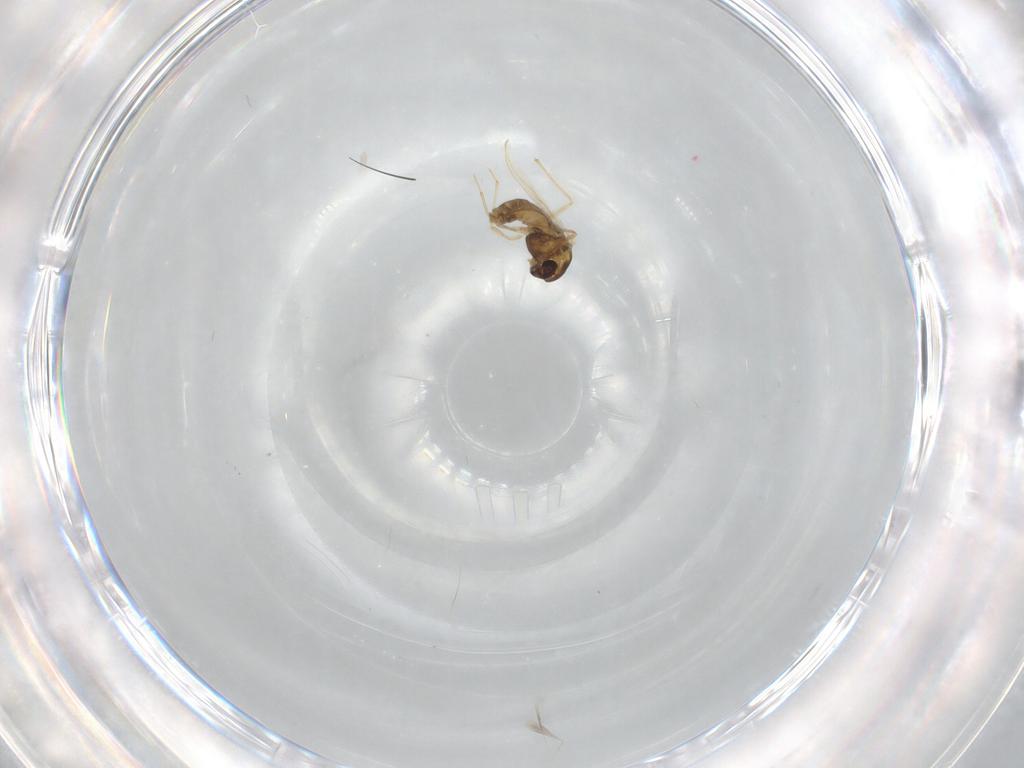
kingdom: Animalia
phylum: Arthropoda
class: Insecta
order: Diptera
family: Chironomidae
